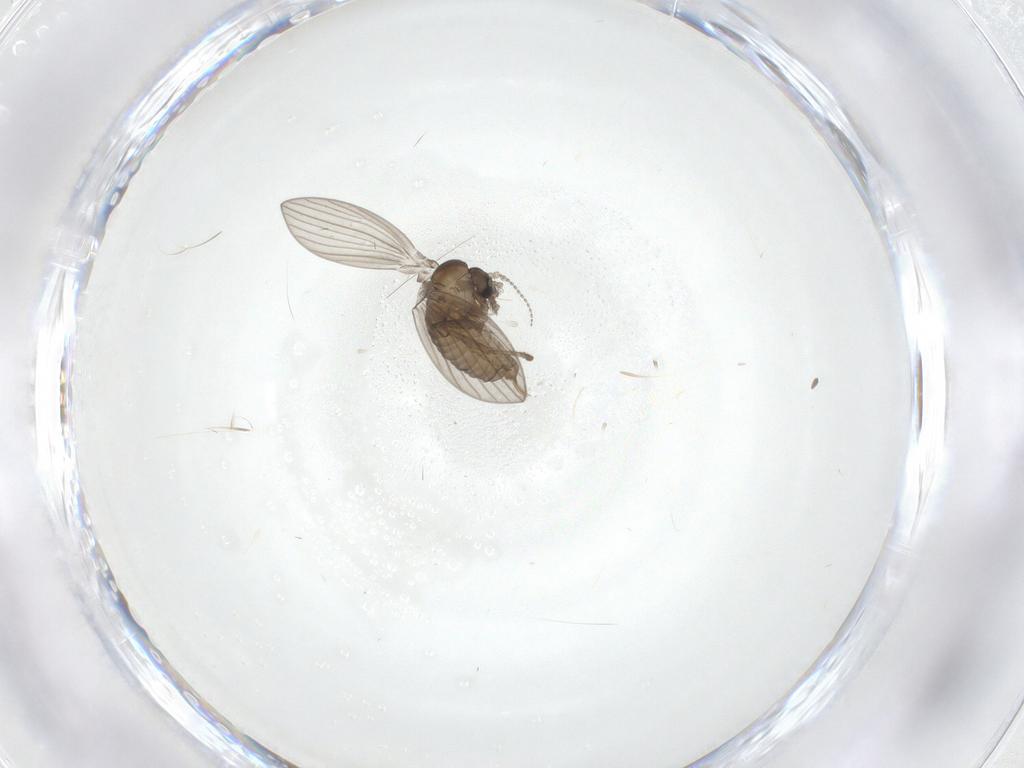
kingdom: Animalia
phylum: Arthropoda
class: Insecta
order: Diptera
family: Psychodidae
